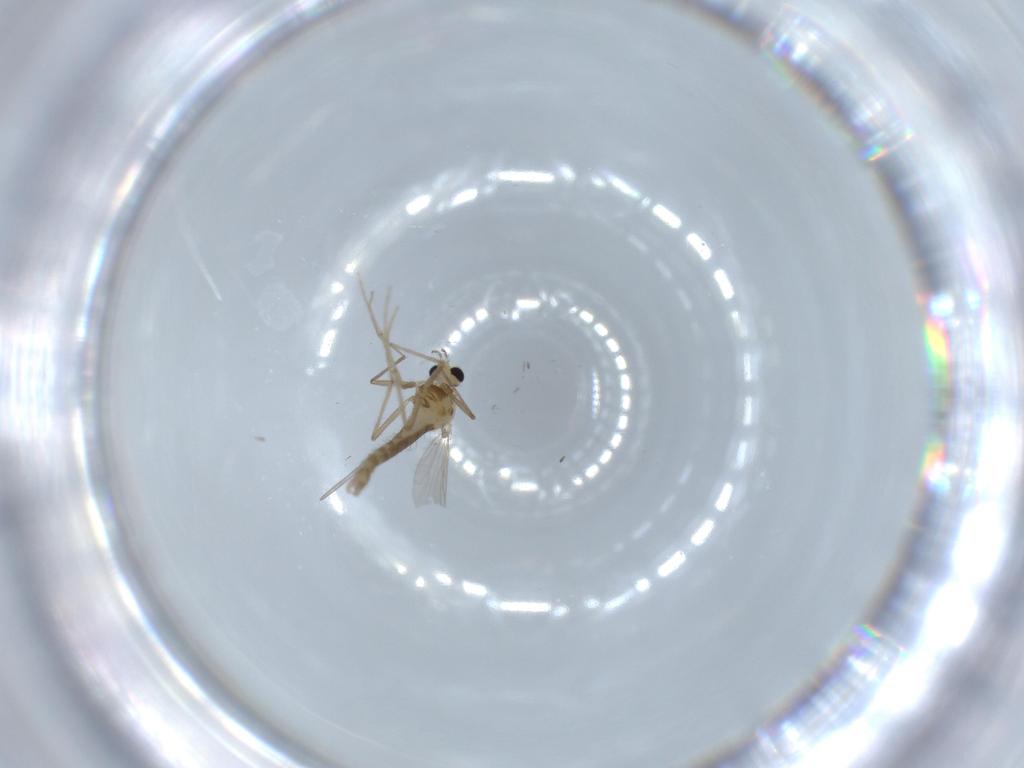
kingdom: Animalia
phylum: Arthropoda
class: Insecta
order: Diptera
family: Chironomidae
